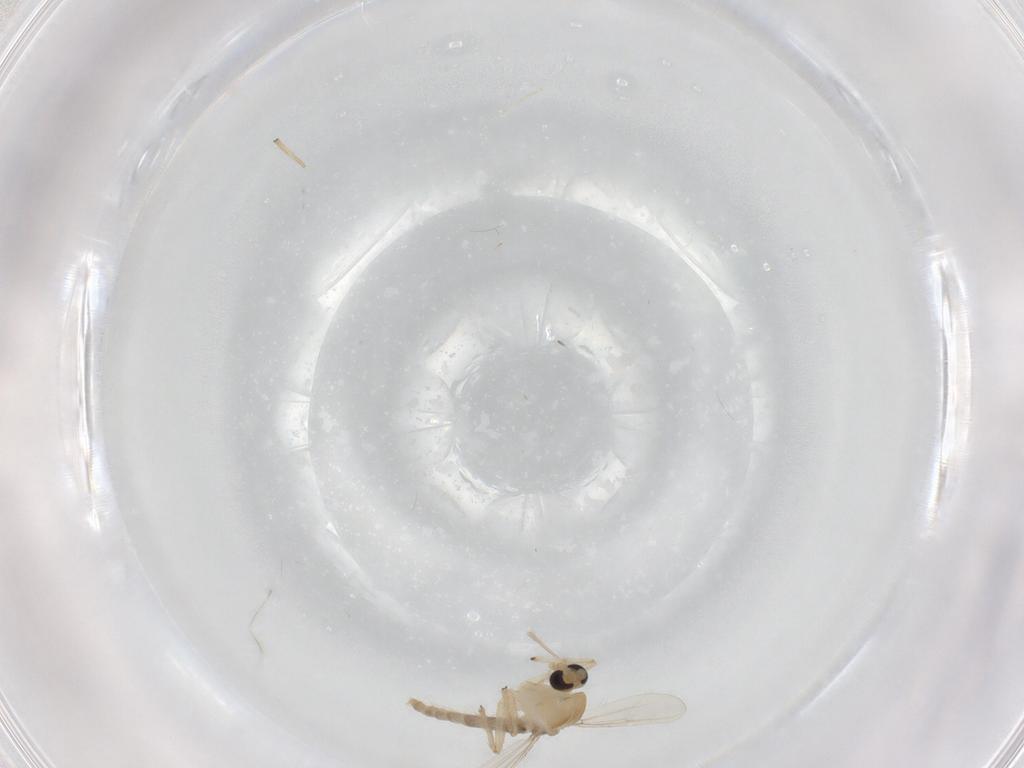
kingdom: Animalia
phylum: Arthropoda
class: Insecta
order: Diptera
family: Chironomidae
